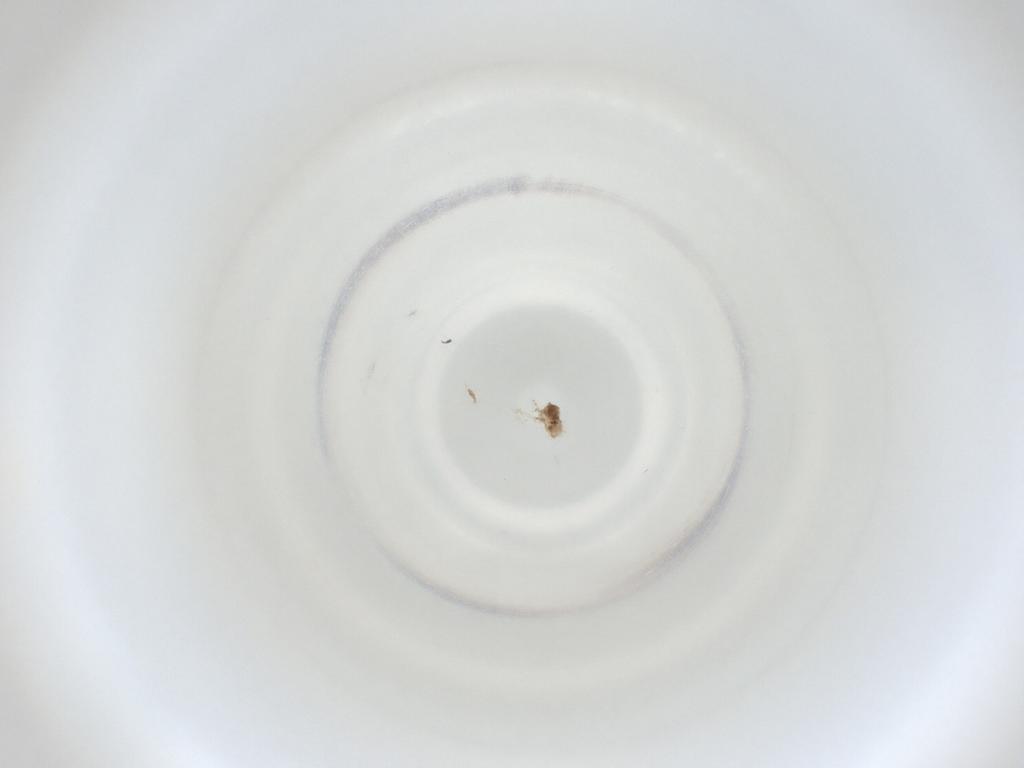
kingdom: Animalia
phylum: Arthropoda
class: Insecta
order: Diptera
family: Cecidomyiidae
